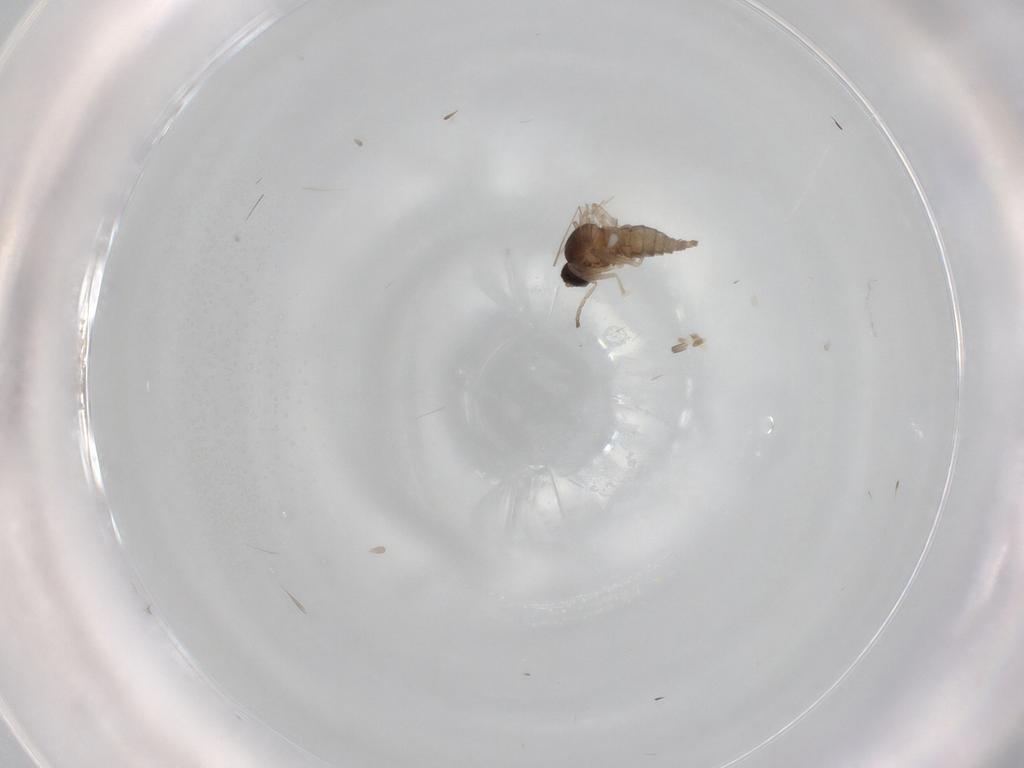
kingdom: Animalia
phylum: Arthropoda
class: Insecta
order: Diptera
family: Cecidomyiidae
